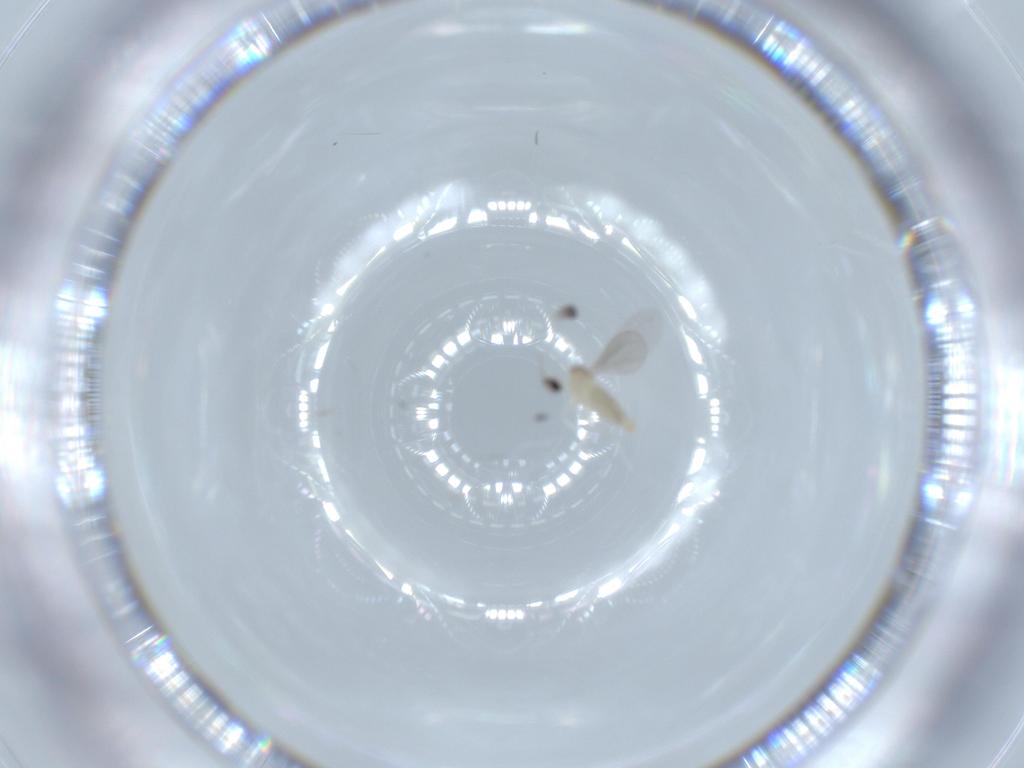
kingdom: Animalia
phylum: Arthropoda
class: Insecta
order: Diptera
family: Cecidomyiidae
